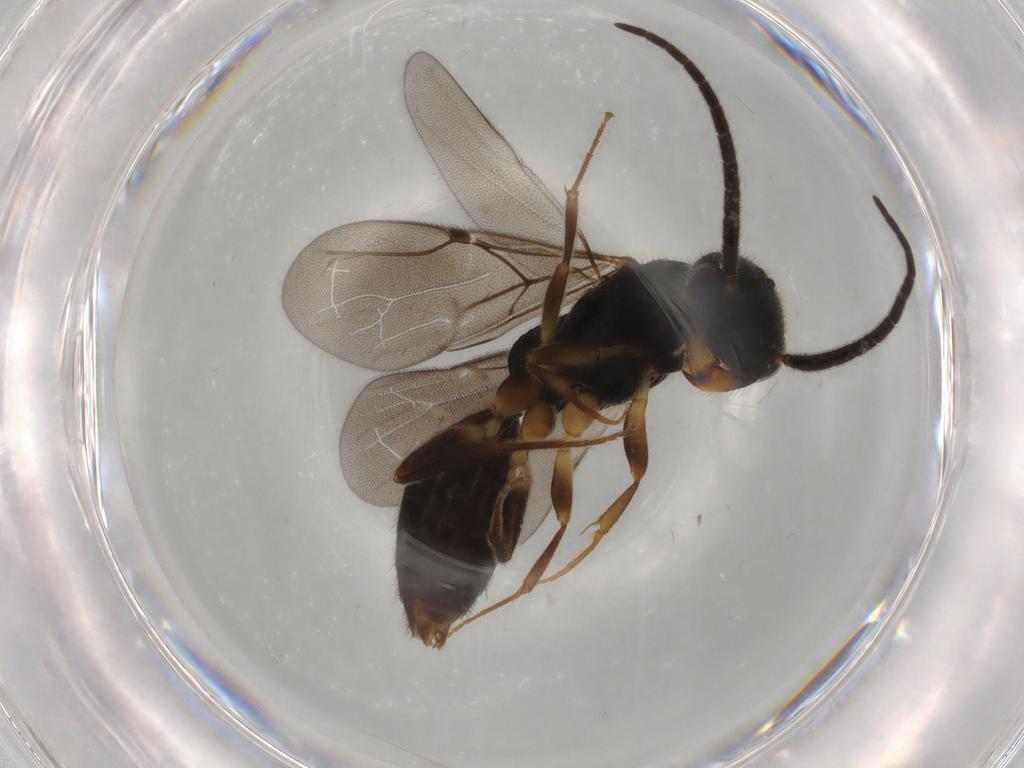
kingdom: Animalia
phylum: Arthropoda
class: Insecta
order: Hymenoptera
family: Bethylidae
